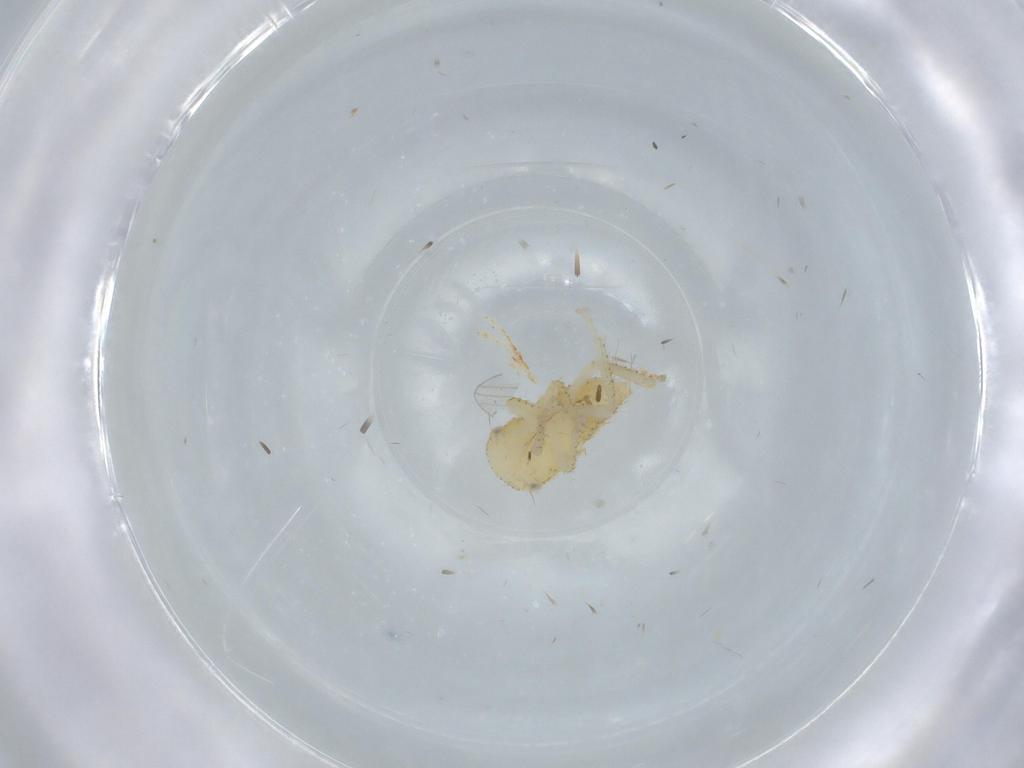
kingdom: Animalia
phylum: Arthropoda
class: Insecta
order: Hemiptera
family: Cicadellidae
